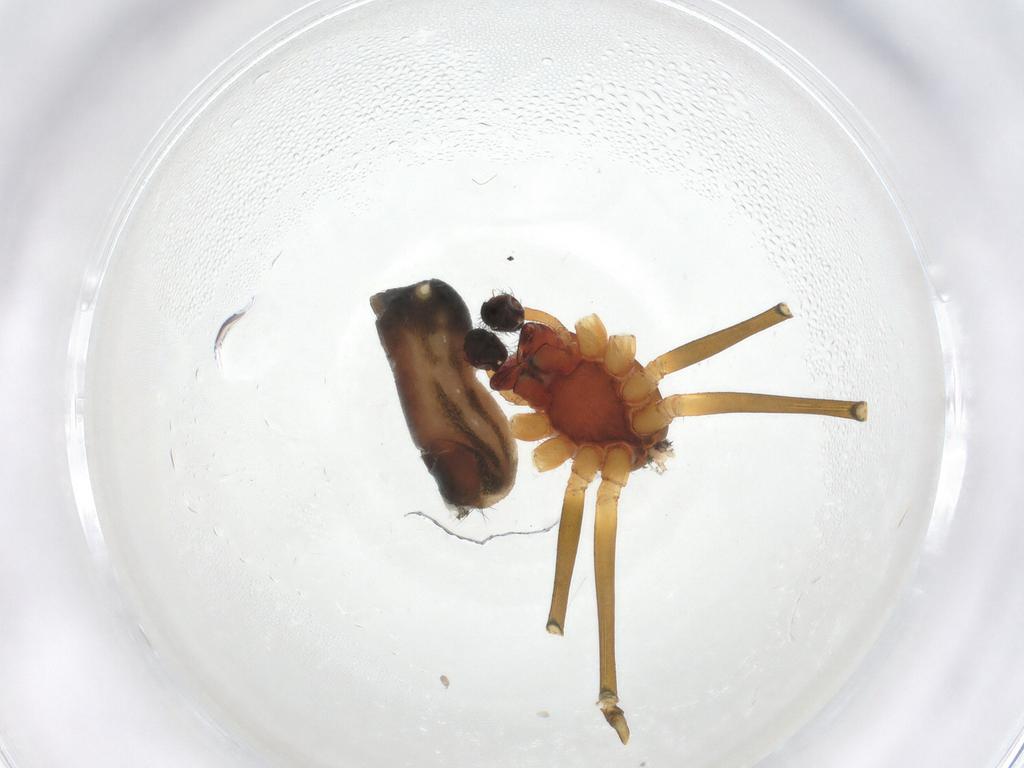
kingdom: Animalia
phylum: Arthropoda
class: Arachnida
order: Araneae
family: Linyphiidae
